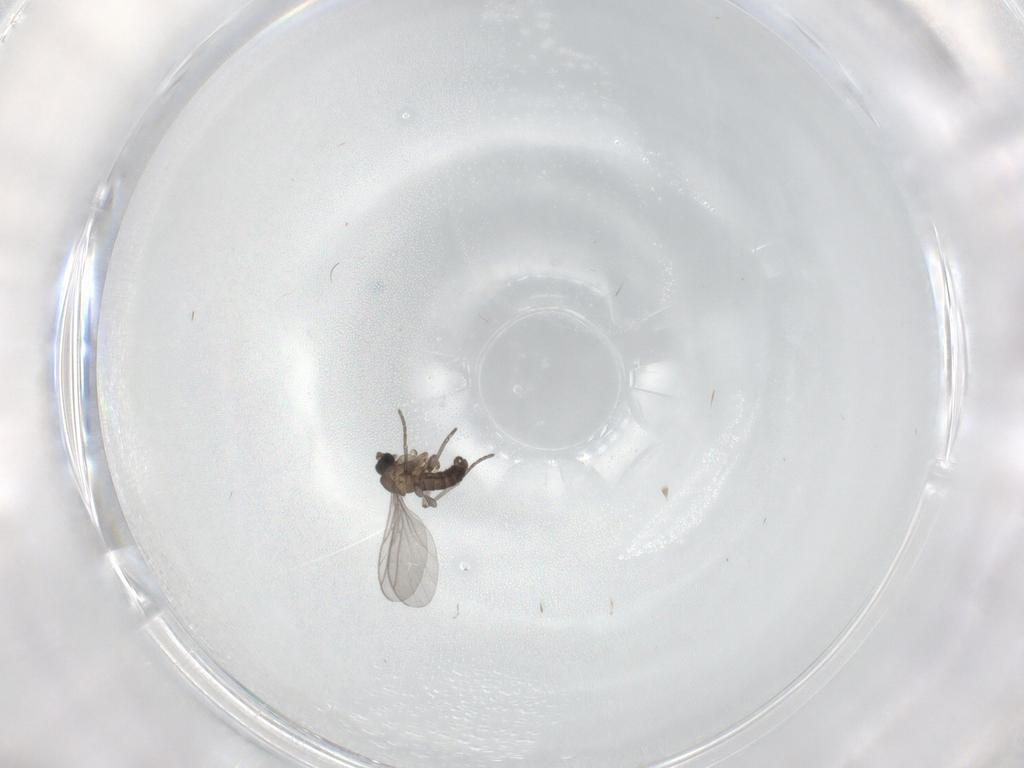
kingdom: Animalia
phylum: Arthropoda
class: Insecta
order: Diptera
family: Sciaridae
